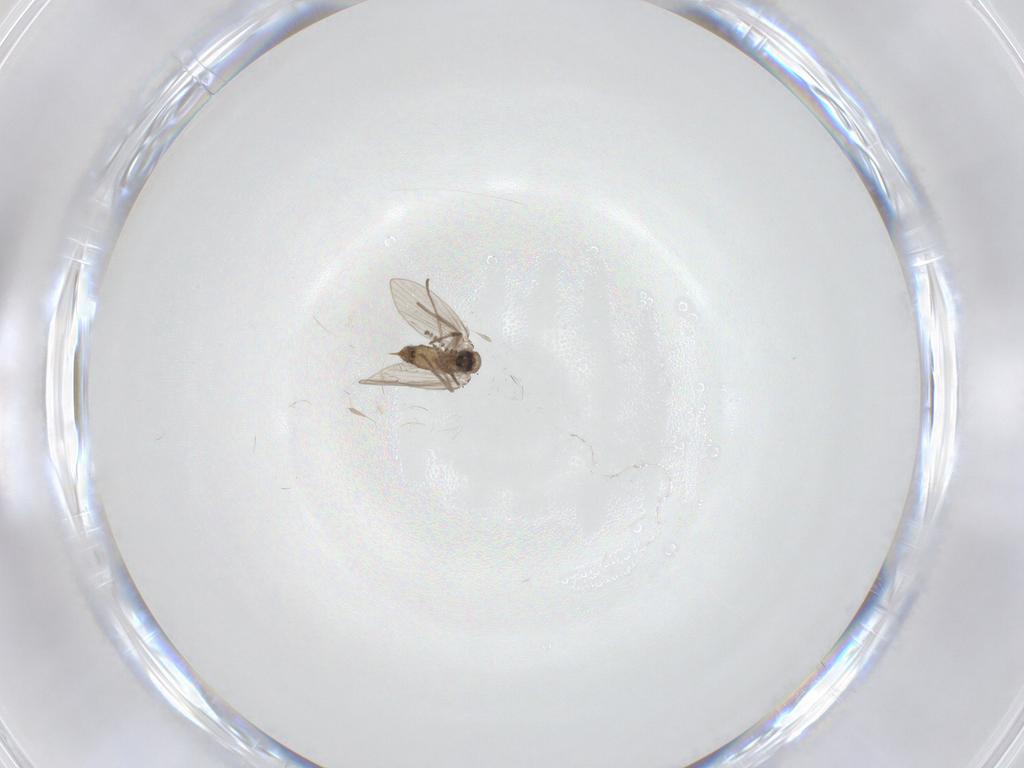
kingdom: Animalia
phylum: Arthropoda
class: Insecta
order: Diptera
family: Psychodidae
